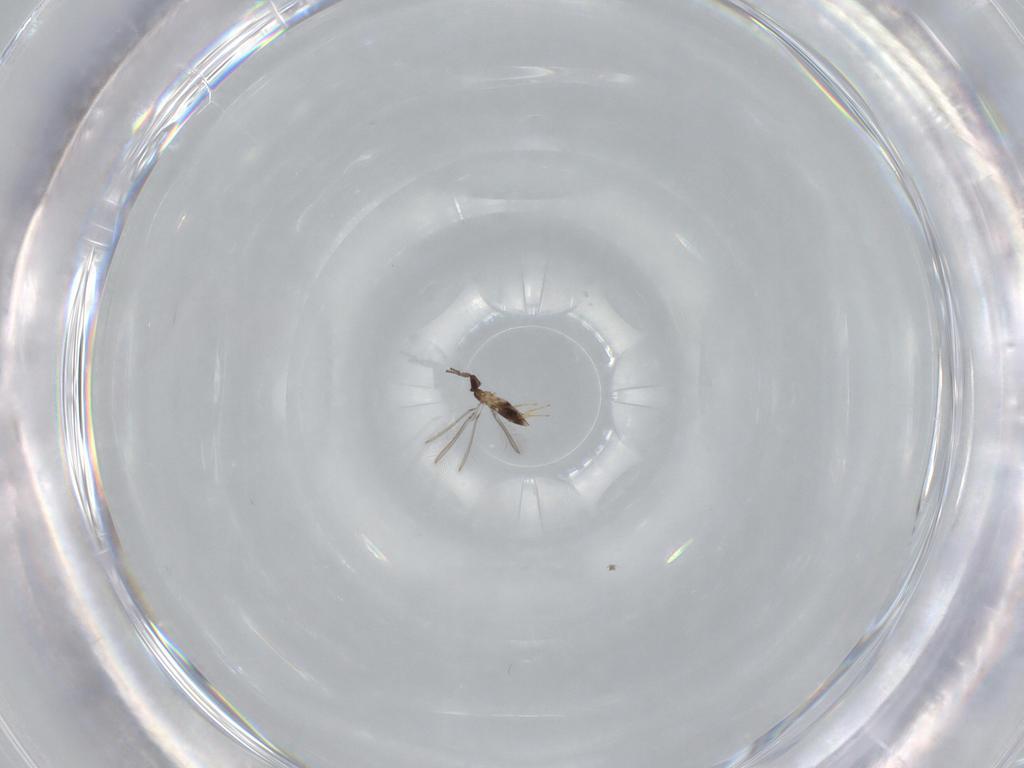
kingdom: Animalia
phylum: Arthropoda
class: Insecta
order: Hymenoptera
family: Mymaridae
